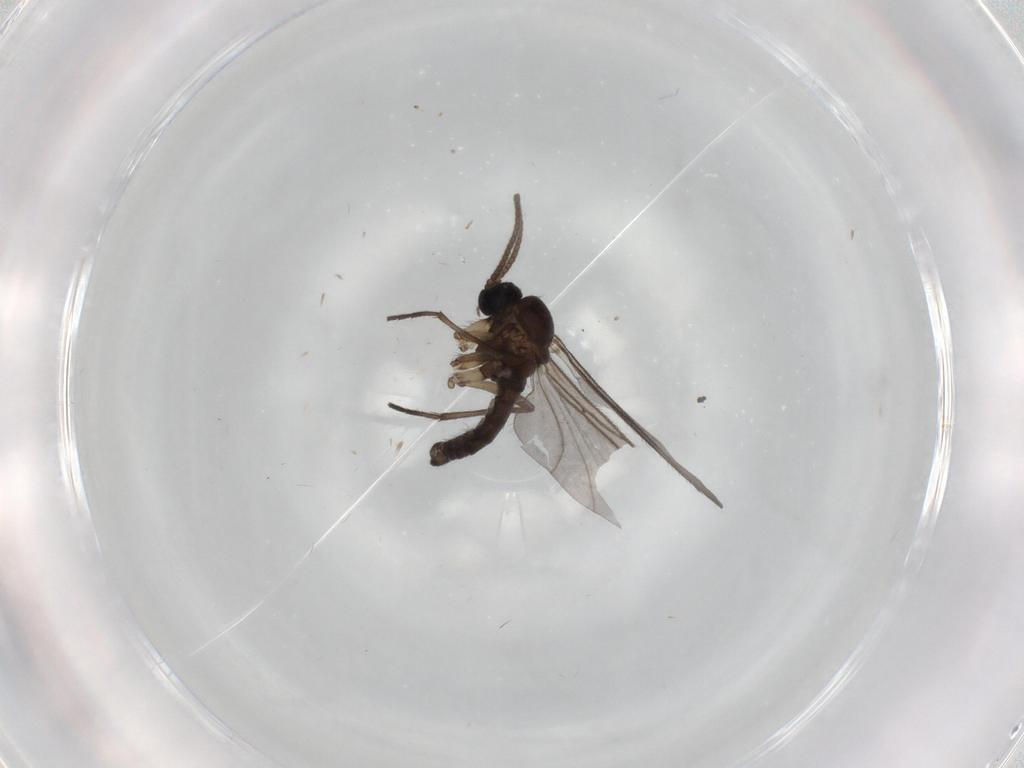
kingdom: Animalia
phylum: Arthropoda
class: Insecta
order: Diptera
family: Sciaridae
